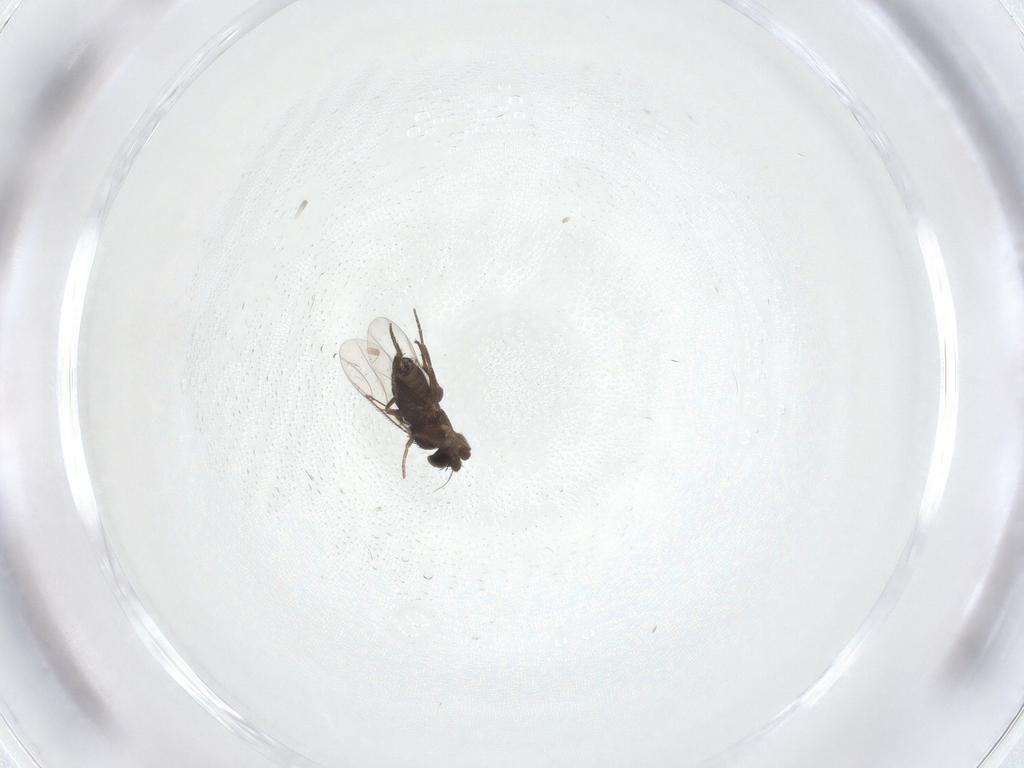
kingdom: Animalia
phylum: Arthropoda
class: Insecta
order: Diptera
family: Phoridae
